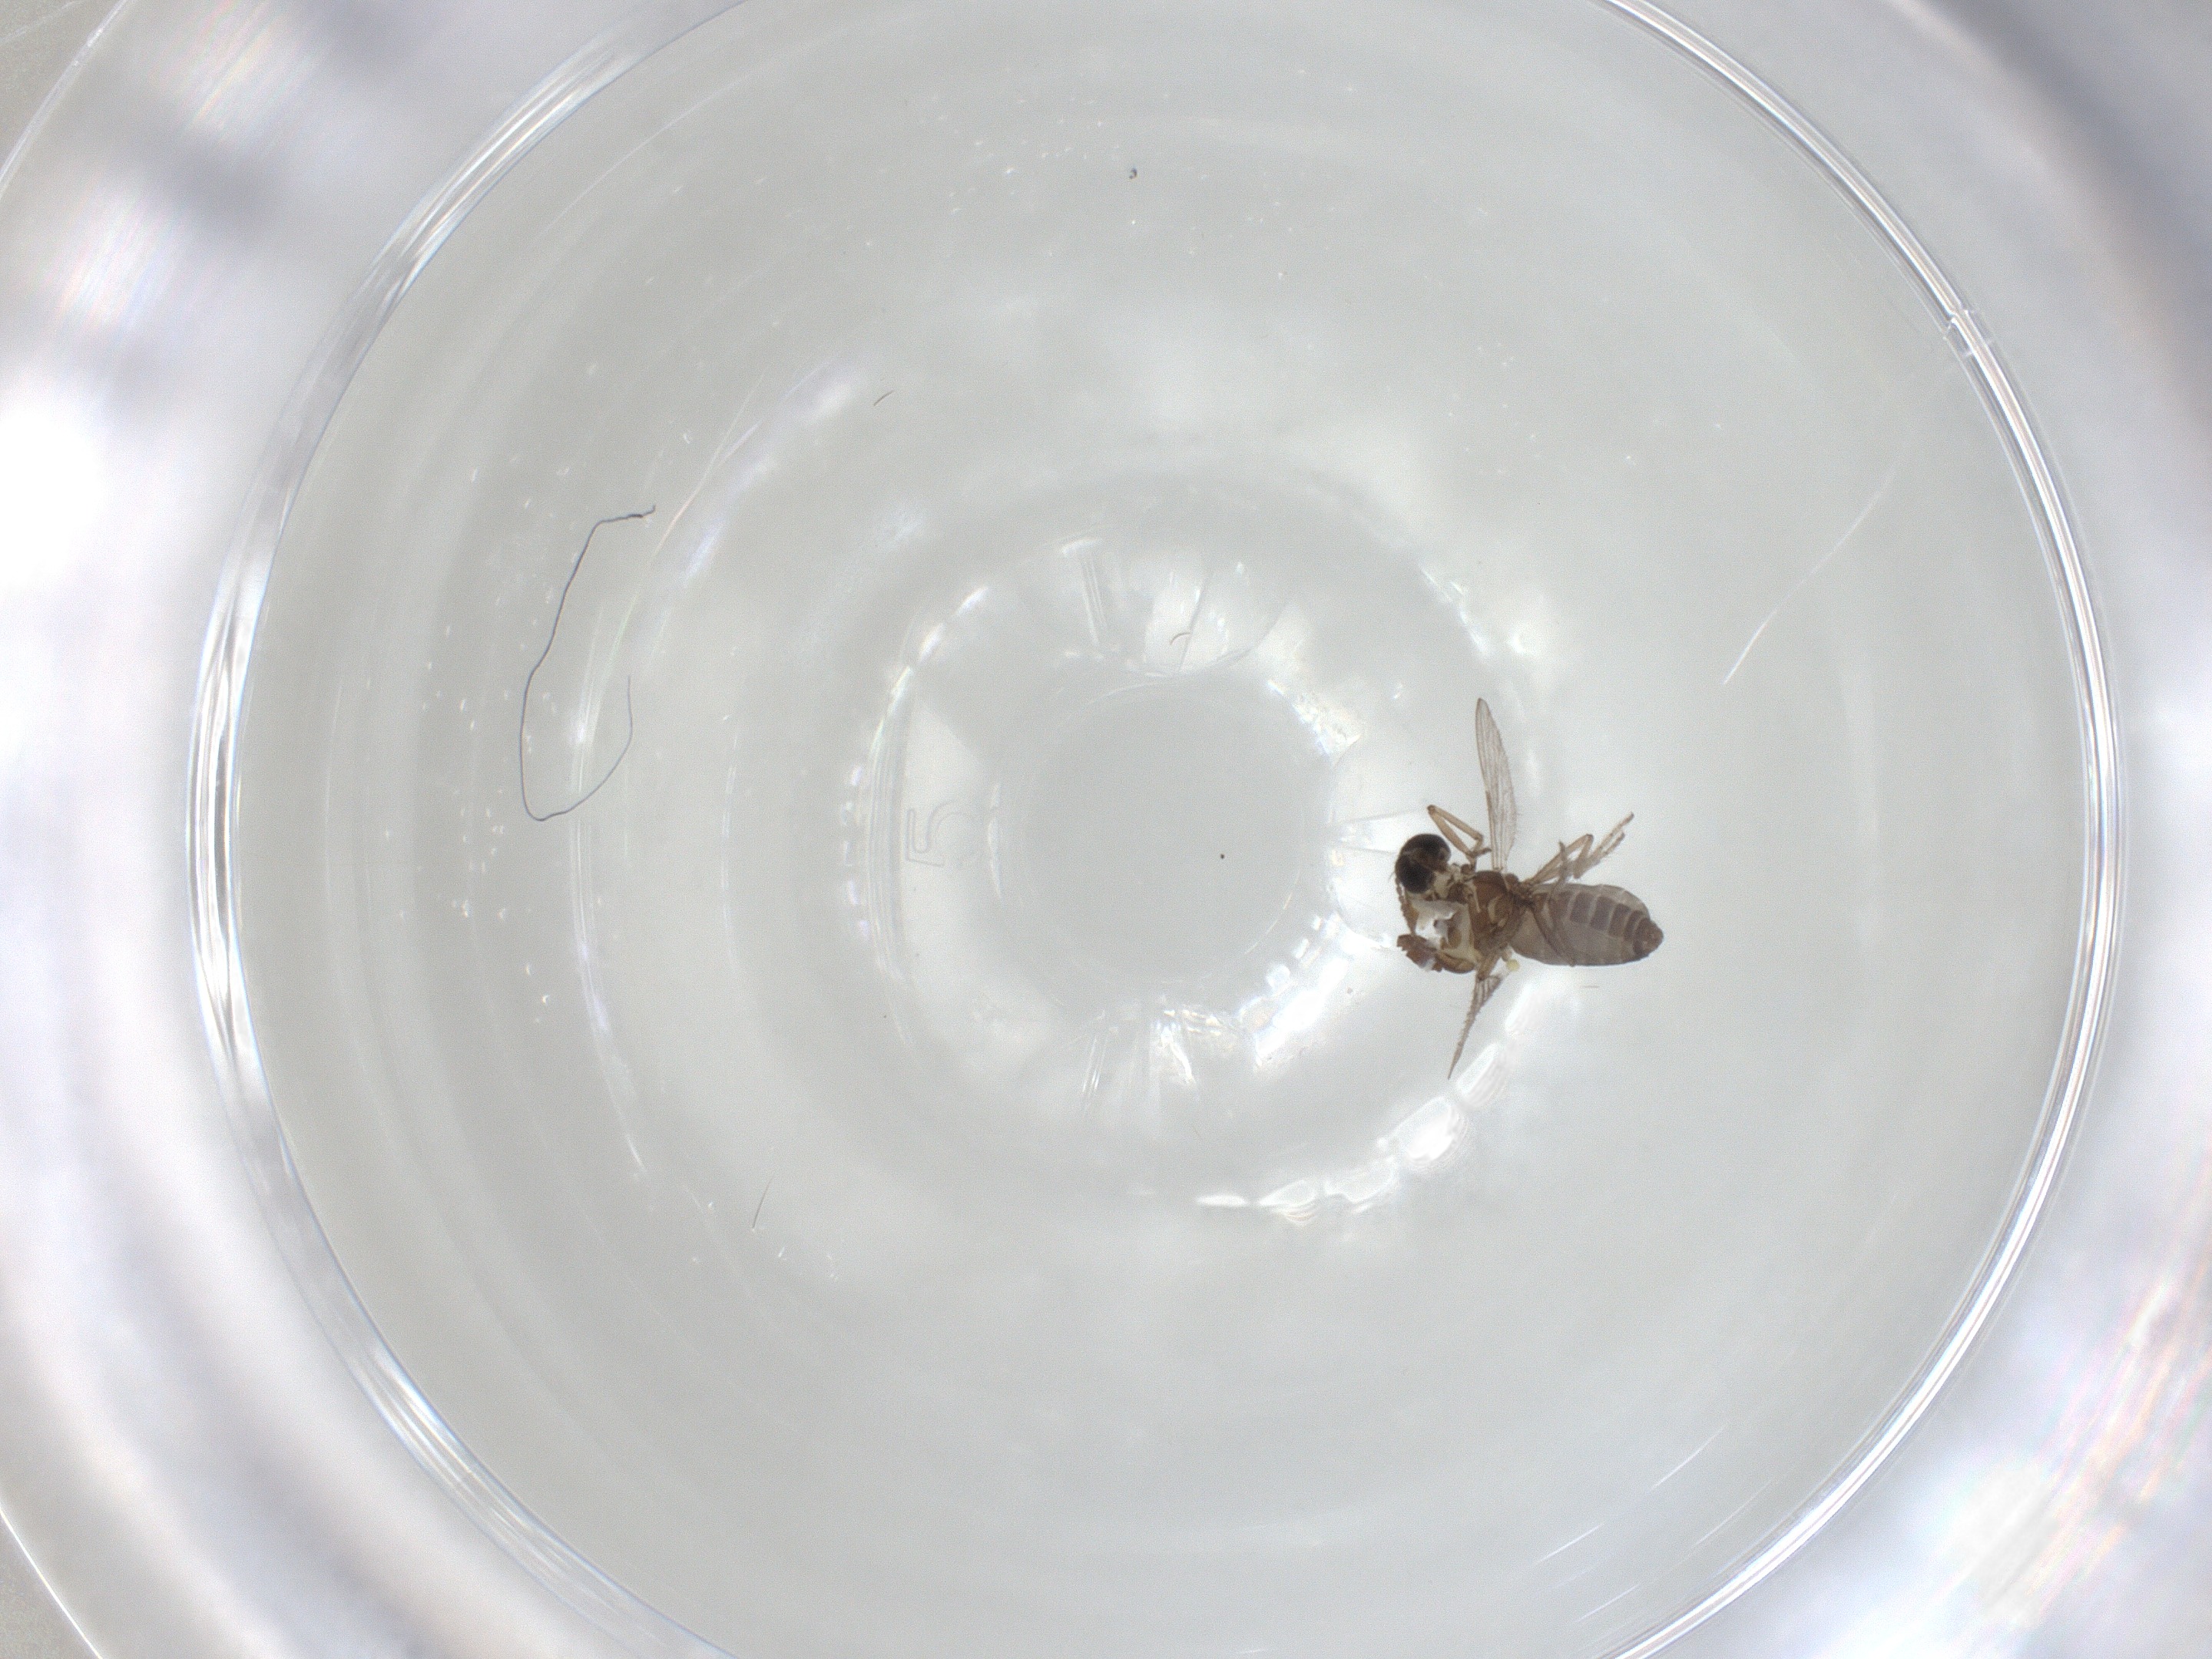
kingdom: Animalia
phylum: Arthropoda
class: Insecta
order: Diptera
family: Ceratopogonidae
